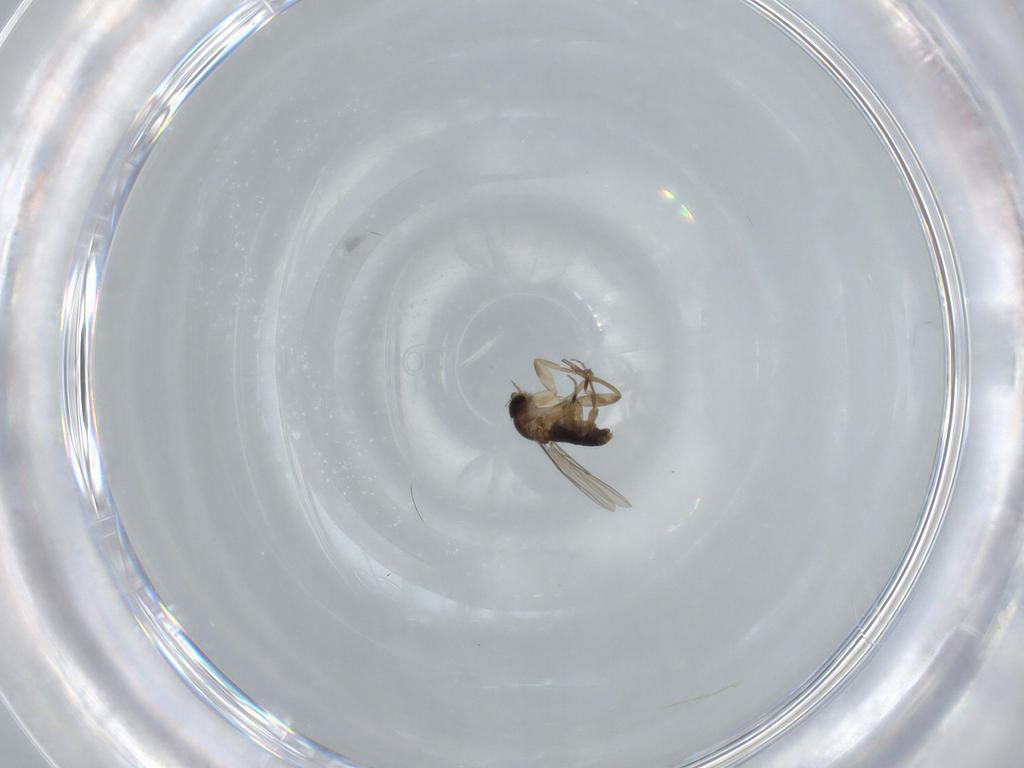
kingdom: Animalia
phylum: Arthropoda
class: Insecta
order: Diptera
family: Phoridae
